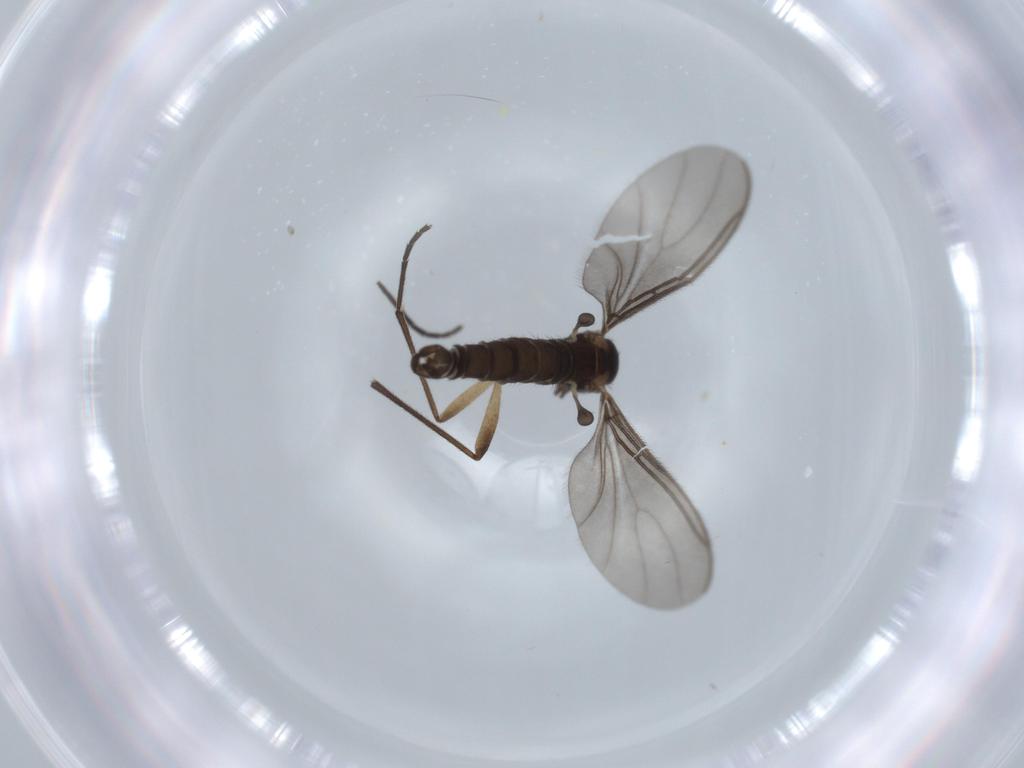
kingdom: Animalia
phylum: Arthropoda
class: Insecta
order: Diptera
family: Sciaridae
